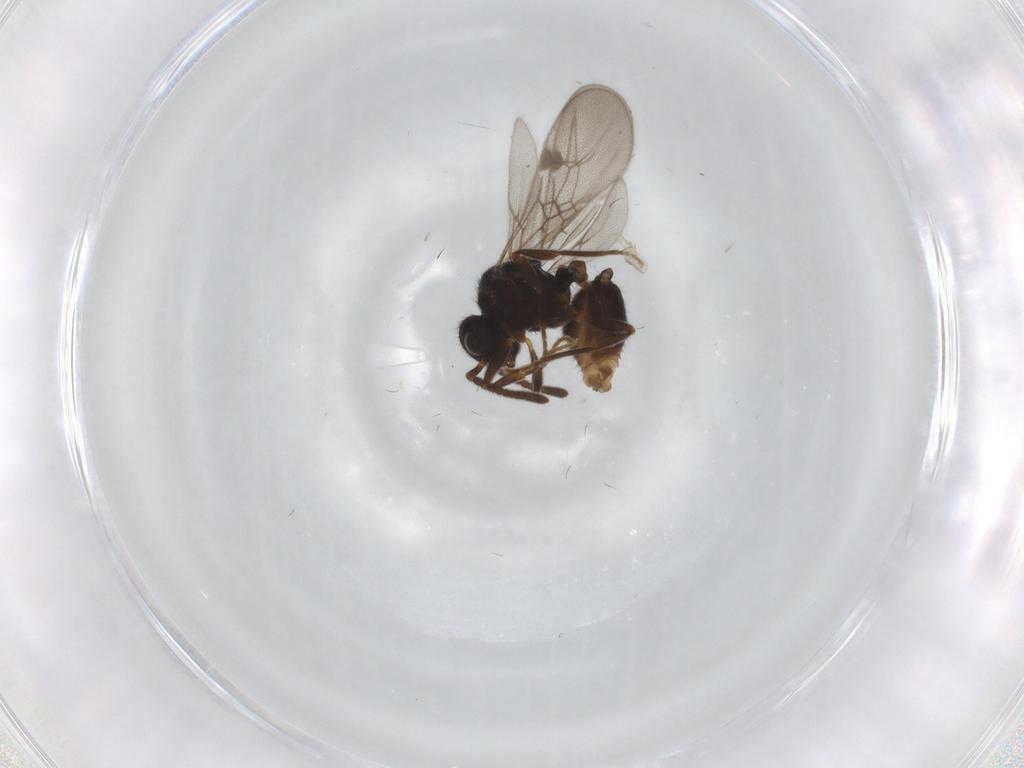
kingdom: Animalia
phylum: Arthropoda
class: Insecta
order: Hymenoptera
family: Formicidae
